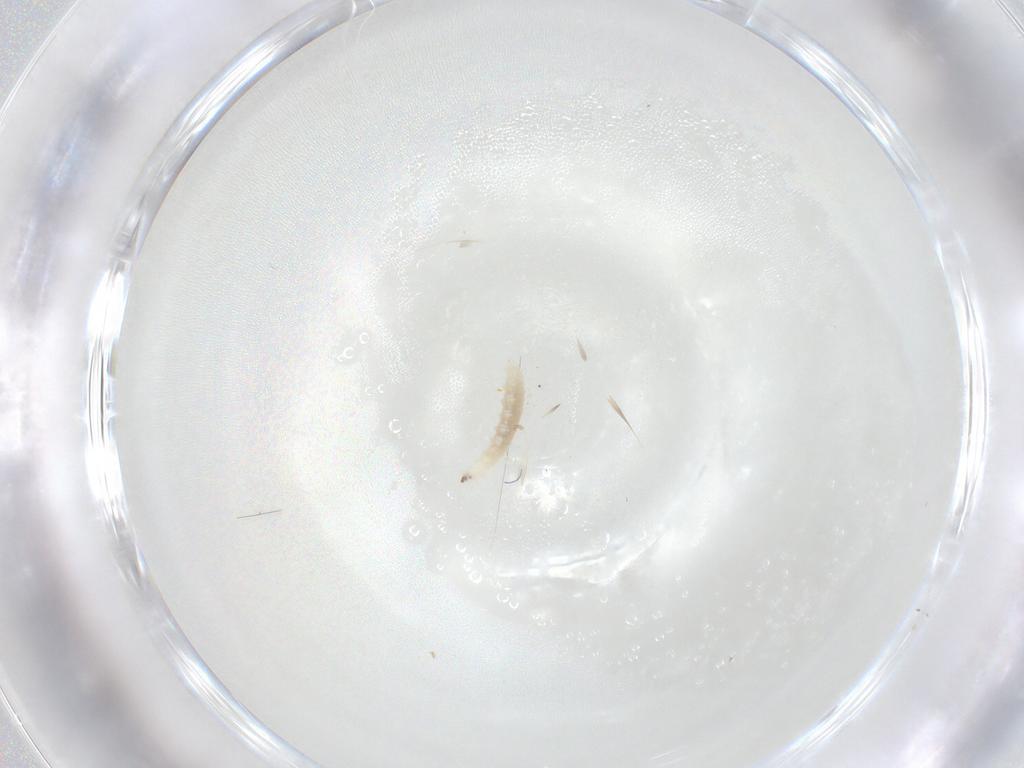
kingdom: Animalia
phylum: Arthropoda
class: Insecta
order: Diptera
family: Cecidomyiidae
